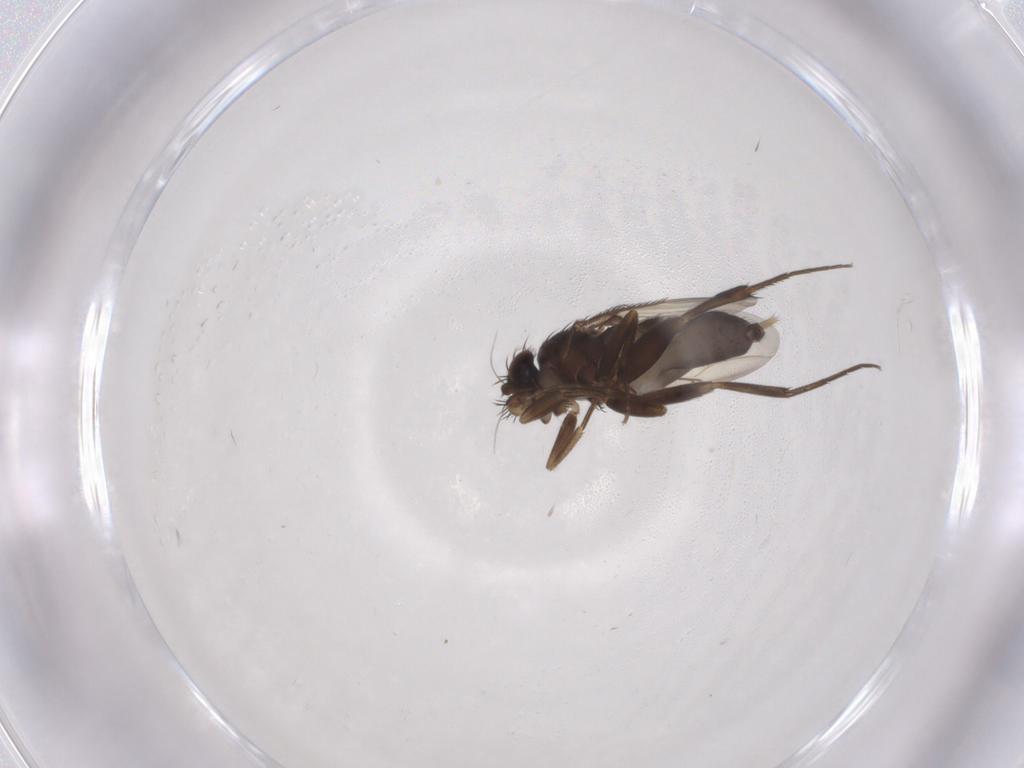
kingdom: Animalia
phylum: Arthropoda
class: Insecta
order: Diptera
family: Phoridae
